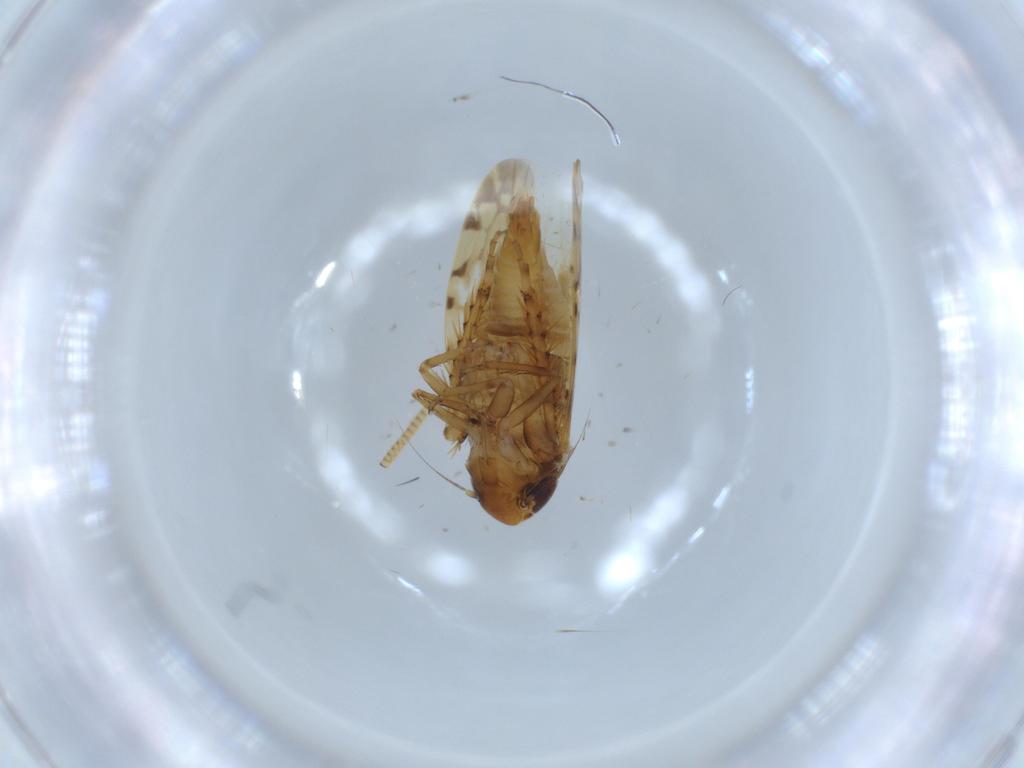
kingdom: Animalia
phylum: Arthropoda
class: Insecta
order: Hemiptera
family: Cicadellidae
